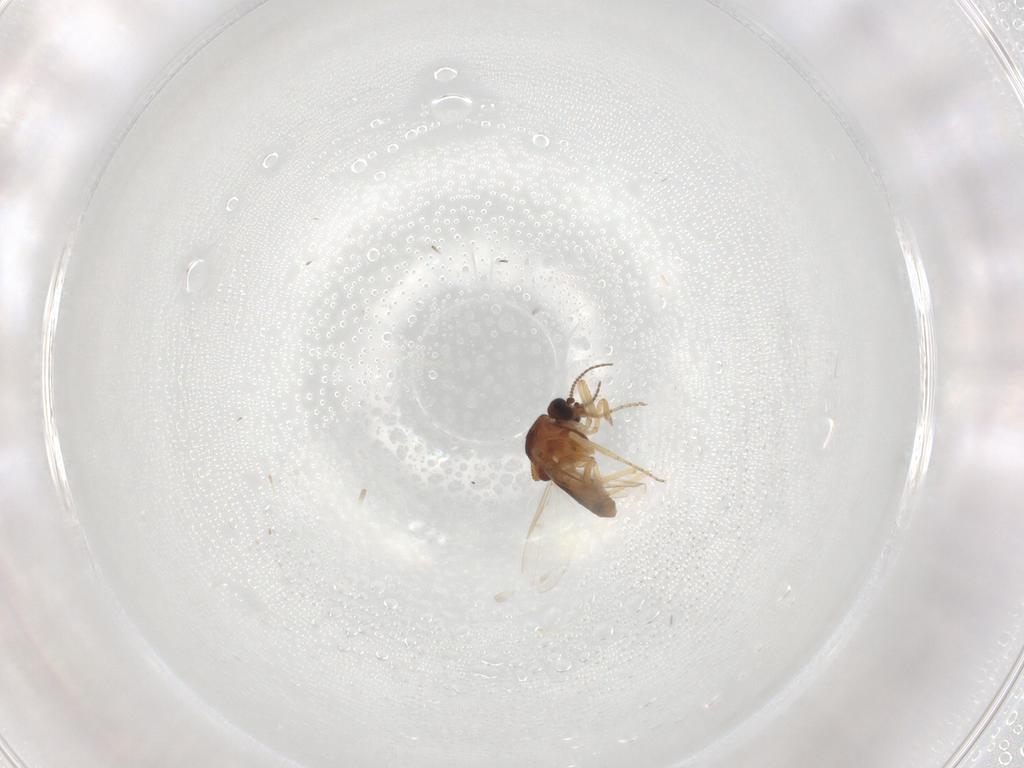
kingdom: Animalia
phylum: Arthropoda
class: Insecta
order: Diptera
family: Ceratopogonidae
